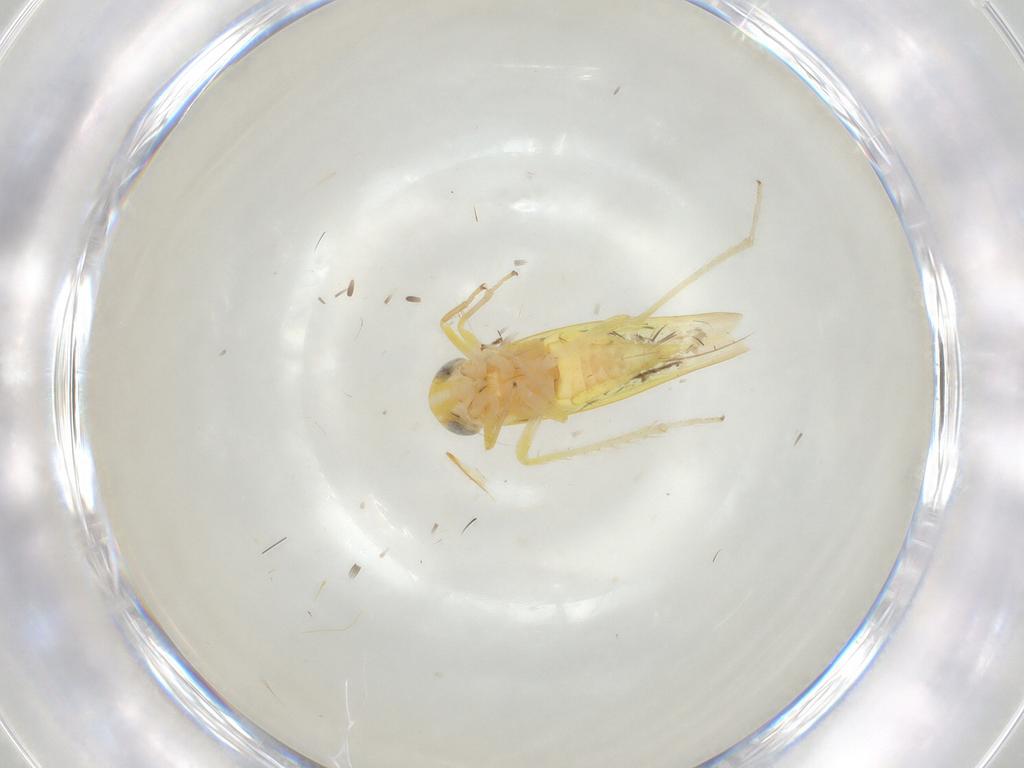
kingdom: Animalia
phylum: Arthropoda
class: Insecta
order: Hemiptera
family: Cicadellidae
